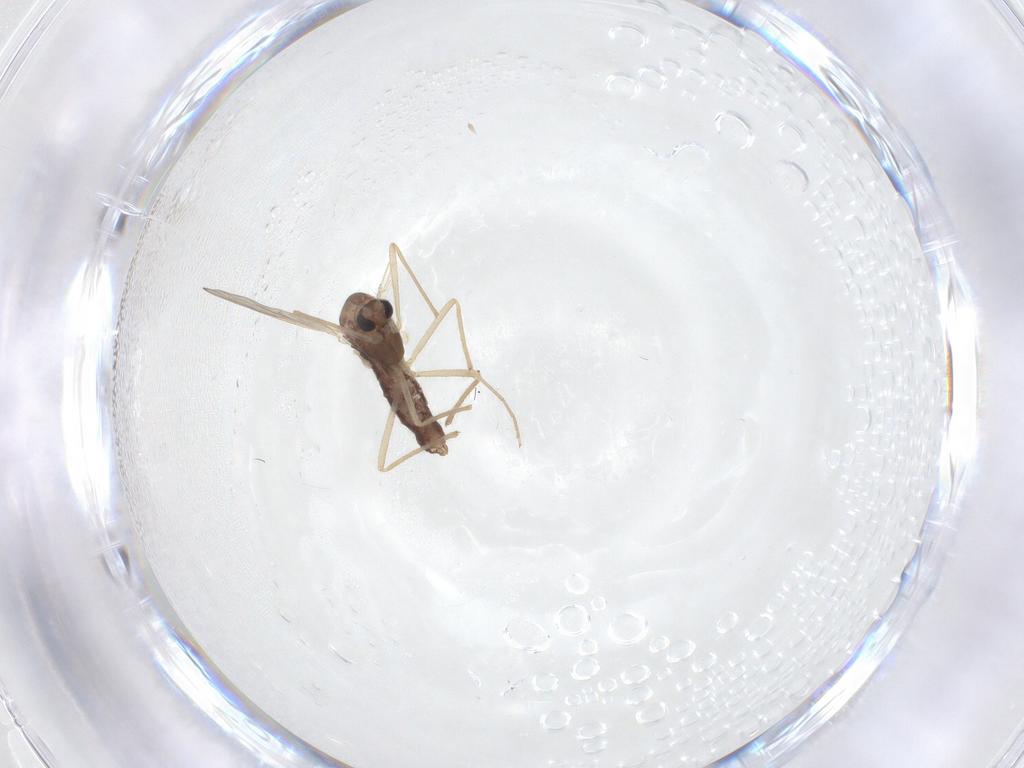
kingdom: Animalia
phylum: Arthropoda
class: Insecta
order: Diptera
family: Chironomidae
